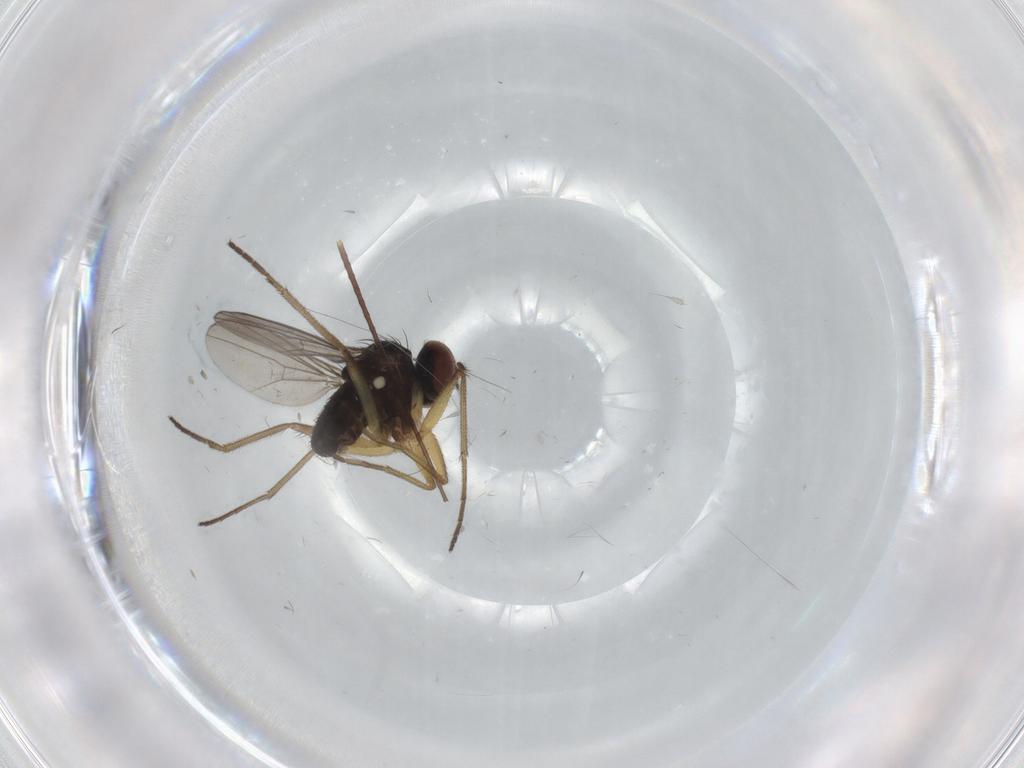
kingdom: Animalia
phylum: Arthropoda
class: Insecta
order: Diptera
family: Dolichopodidae
